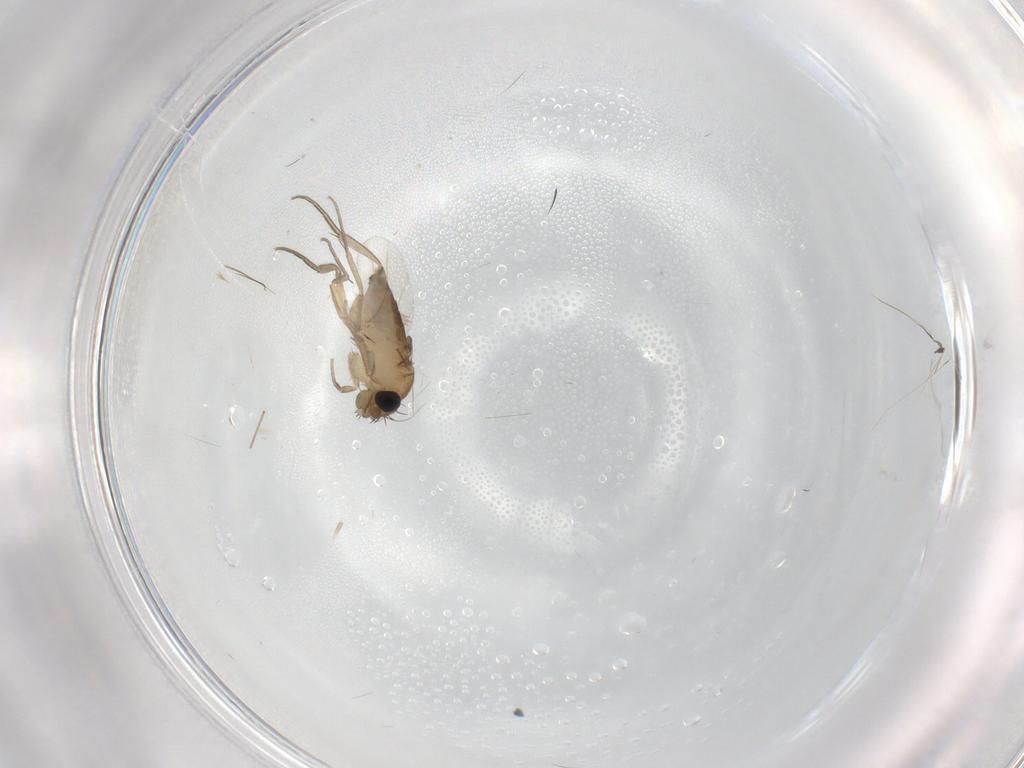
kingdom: Animalia
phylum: Arthropoda
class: Insecta
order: Diptera
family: Phoridae
